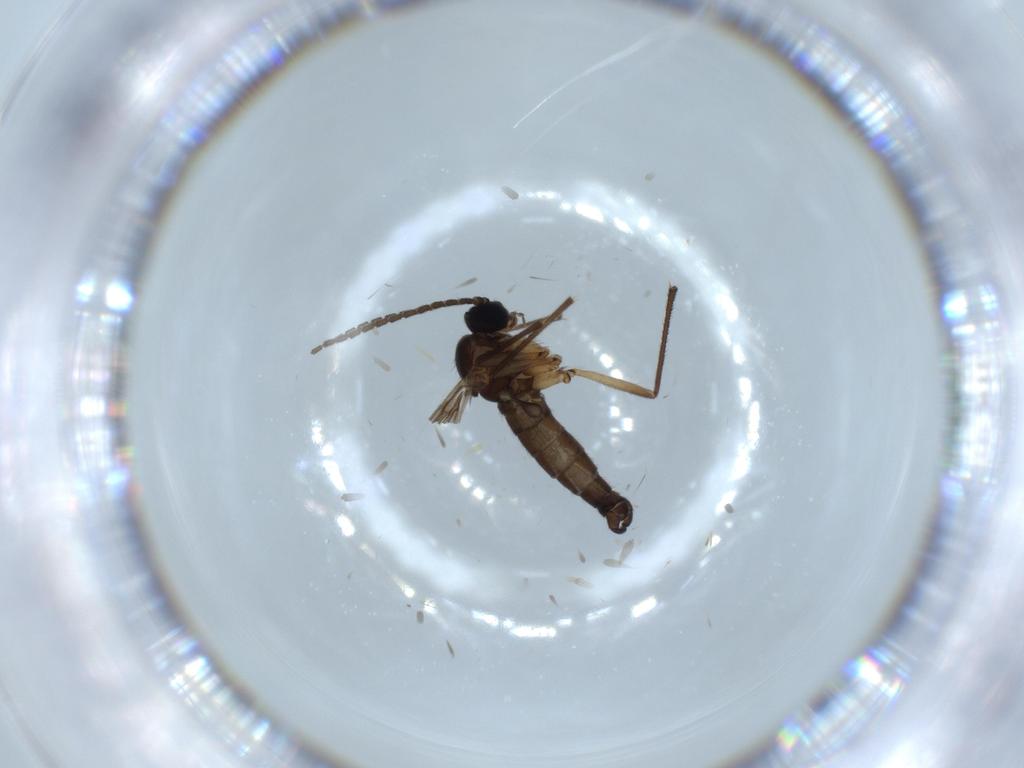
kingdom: Animalia
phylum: Arthropoda
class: Insecta
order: Diptera
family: Sciaridae
